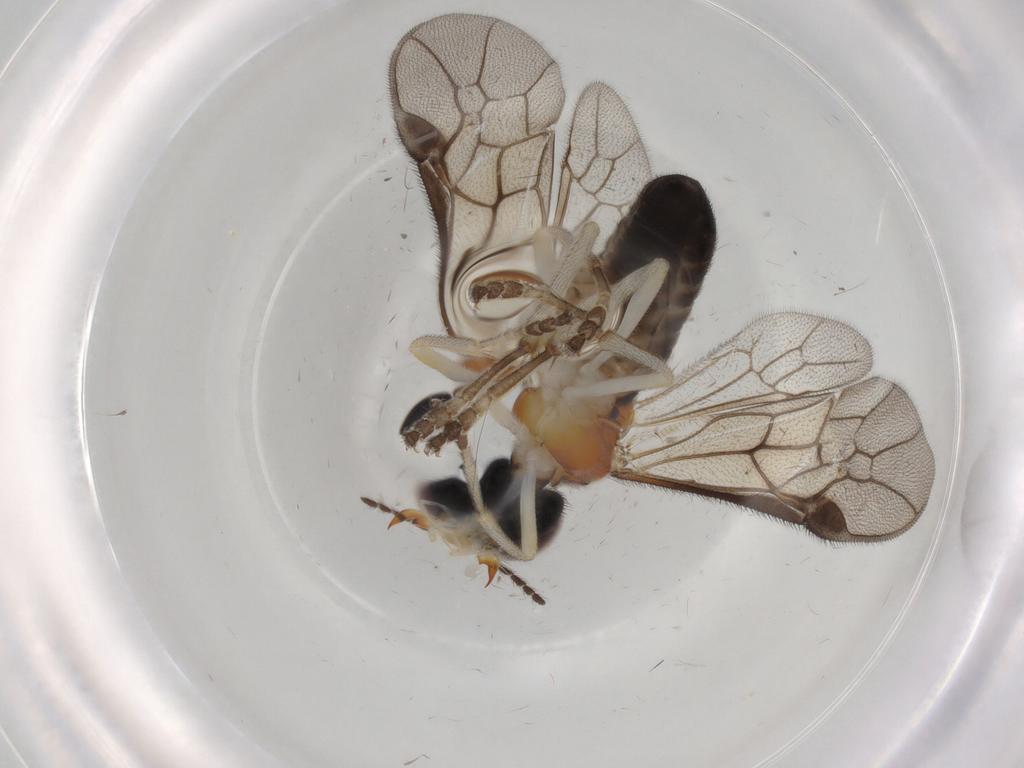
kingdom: Animalia
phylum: Arthropoda
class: Insecta
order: Hymenoptera
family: Pergidae
